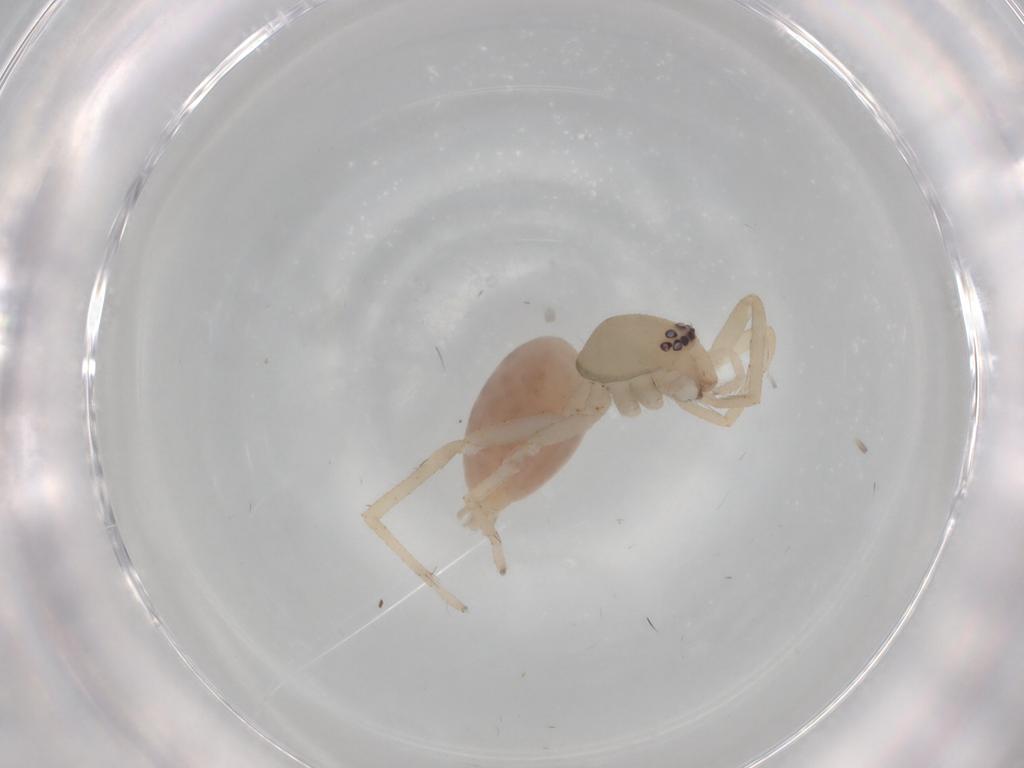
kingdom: Animalia
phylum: Arthropoda
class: Arachnida
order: Araneae
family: Clubionidae
